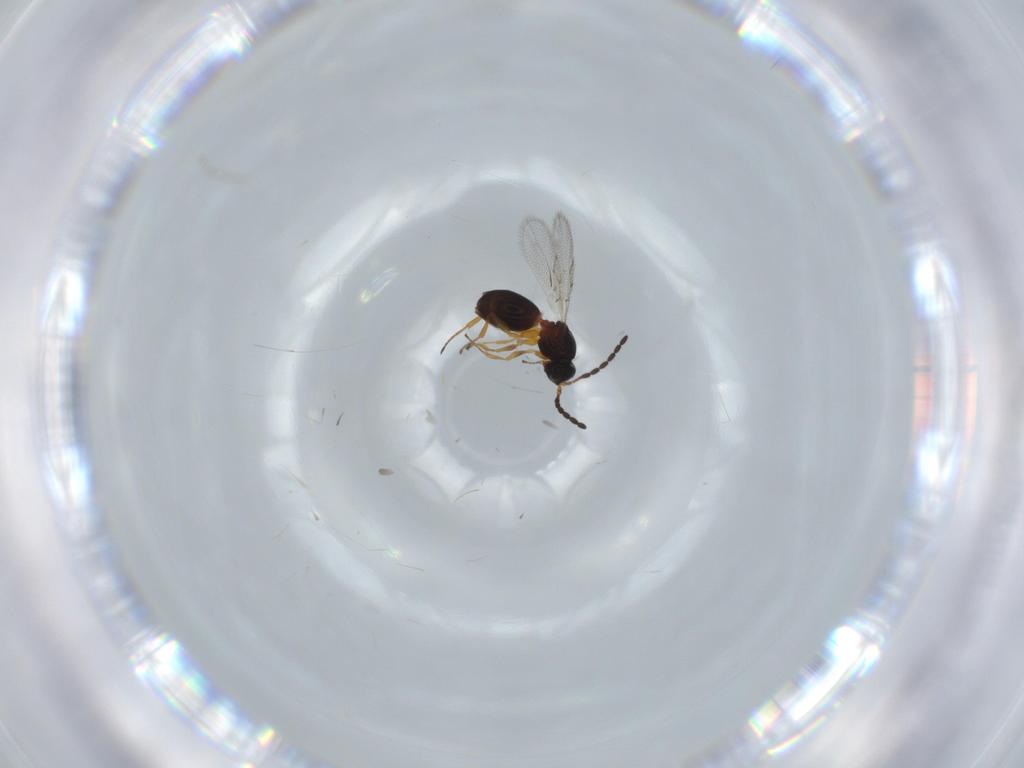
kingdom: Animalia
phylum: Arthropoda
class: Insecta
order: Hymenoptera
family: Figitidae
